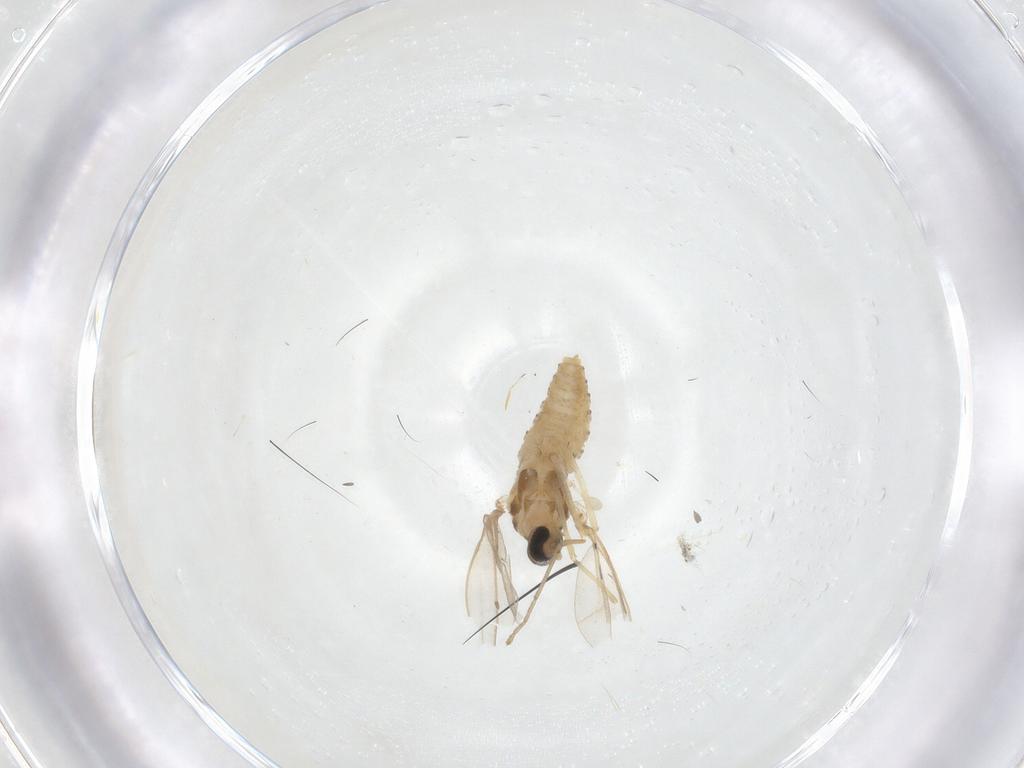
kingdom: Animalia
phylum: Arthropoda
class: Insecta
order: Diptera
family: Cecidomyiidae
